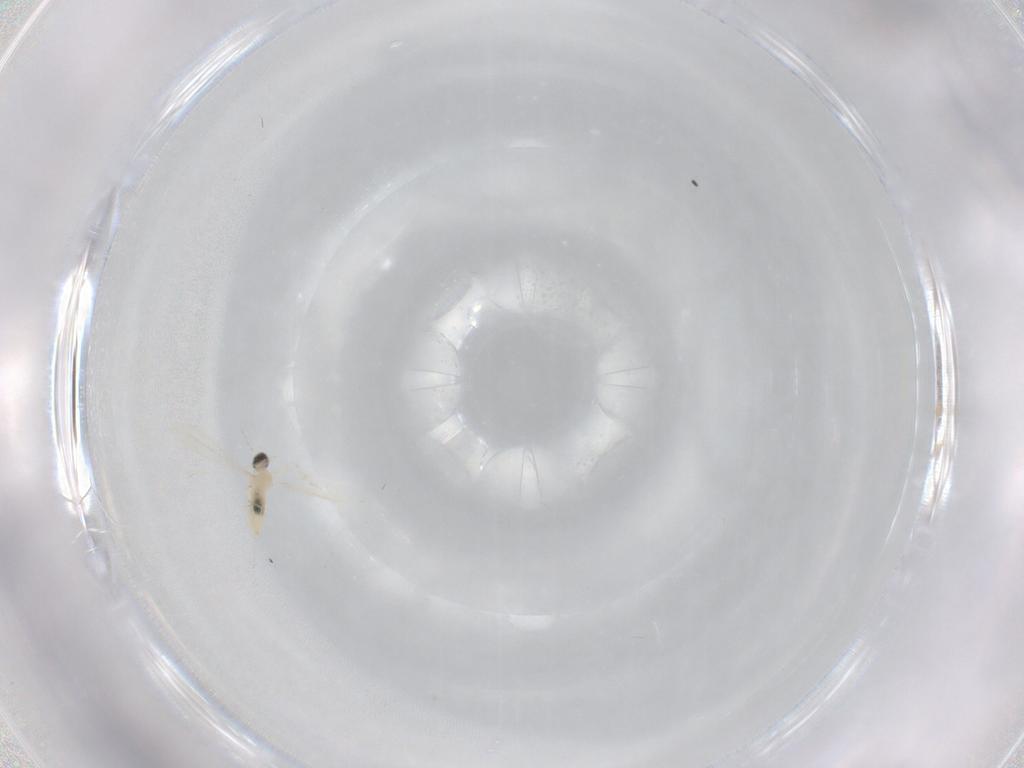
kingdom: Animalia
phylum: Arthropoda
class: Insecta
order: Diptera
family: Cecidomyiidae
